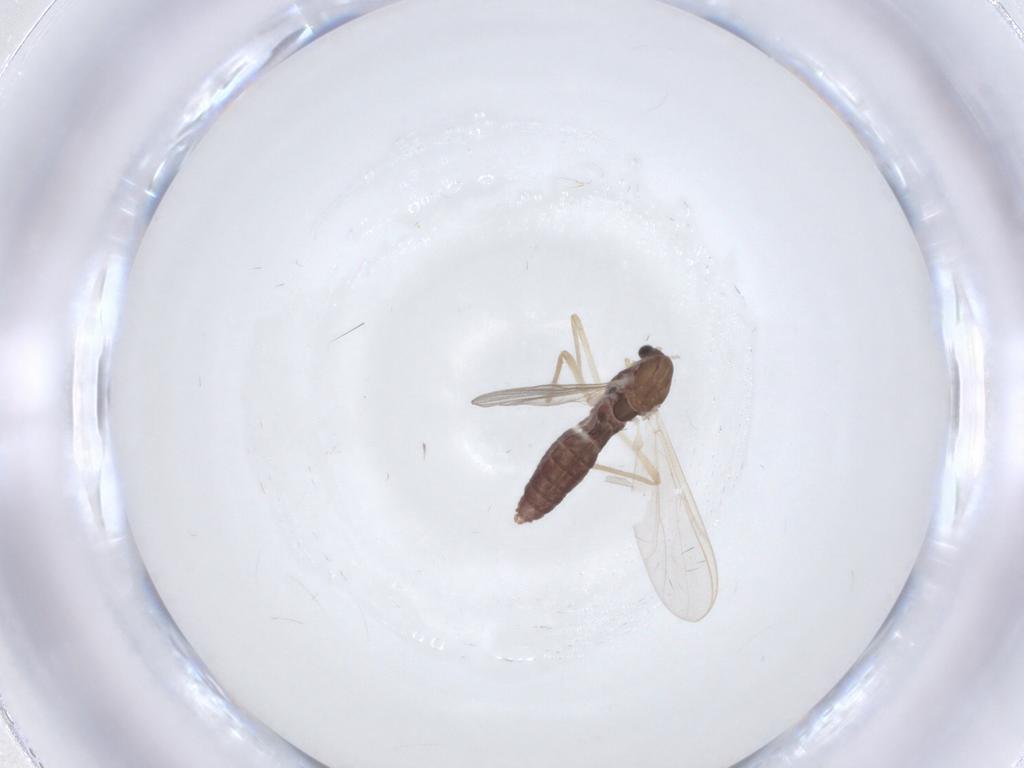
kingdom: Animalia
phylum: Arthropoda
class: Insecta
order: Diptera
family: Chironomidae
